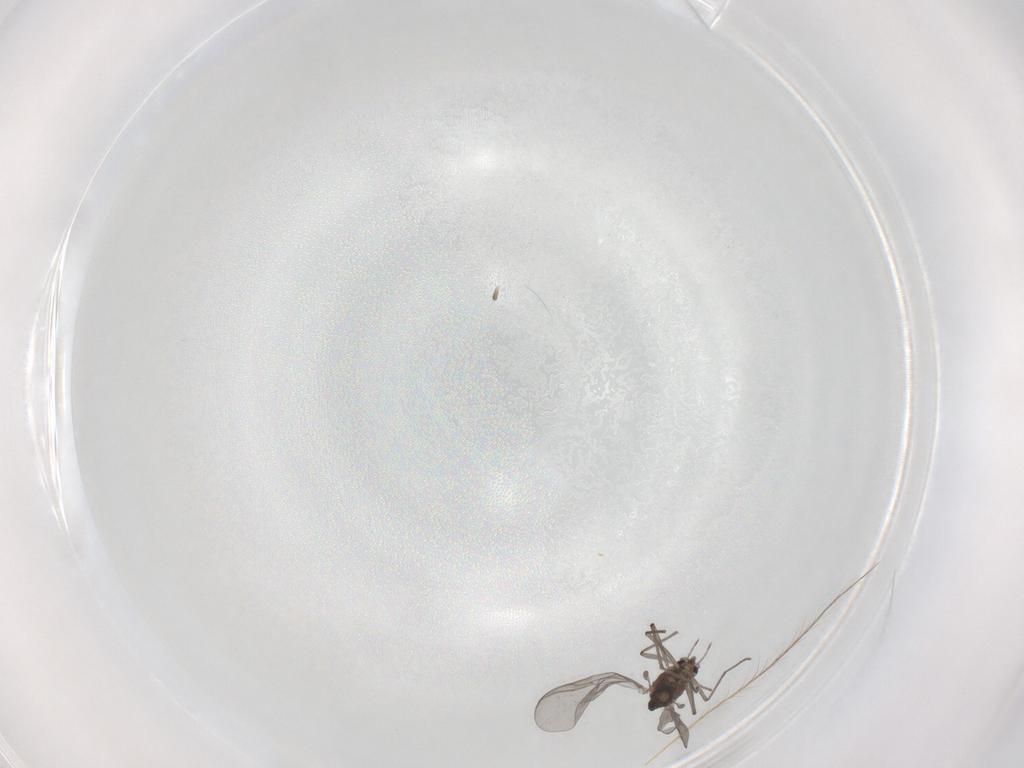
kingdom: Animalia
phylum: Arthropoda
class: Insecta
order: Diptera
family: Chironomidae
